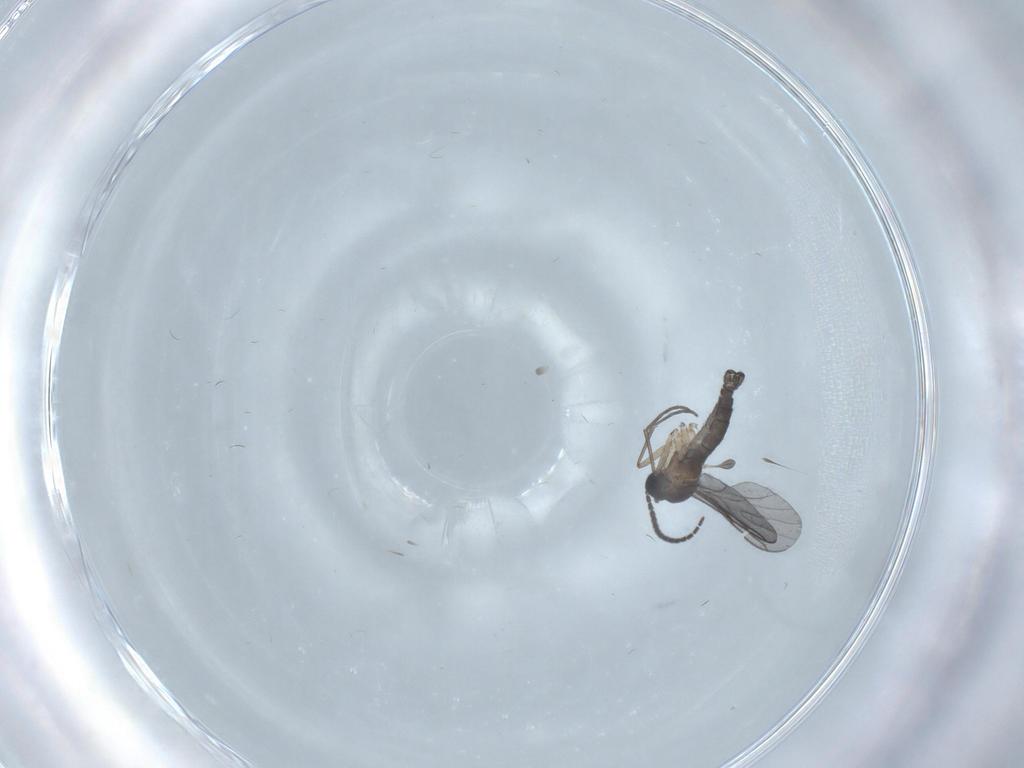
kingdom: Animalia
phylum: Arthropoda
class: Insecta
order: Diptera
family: Sciaridae
